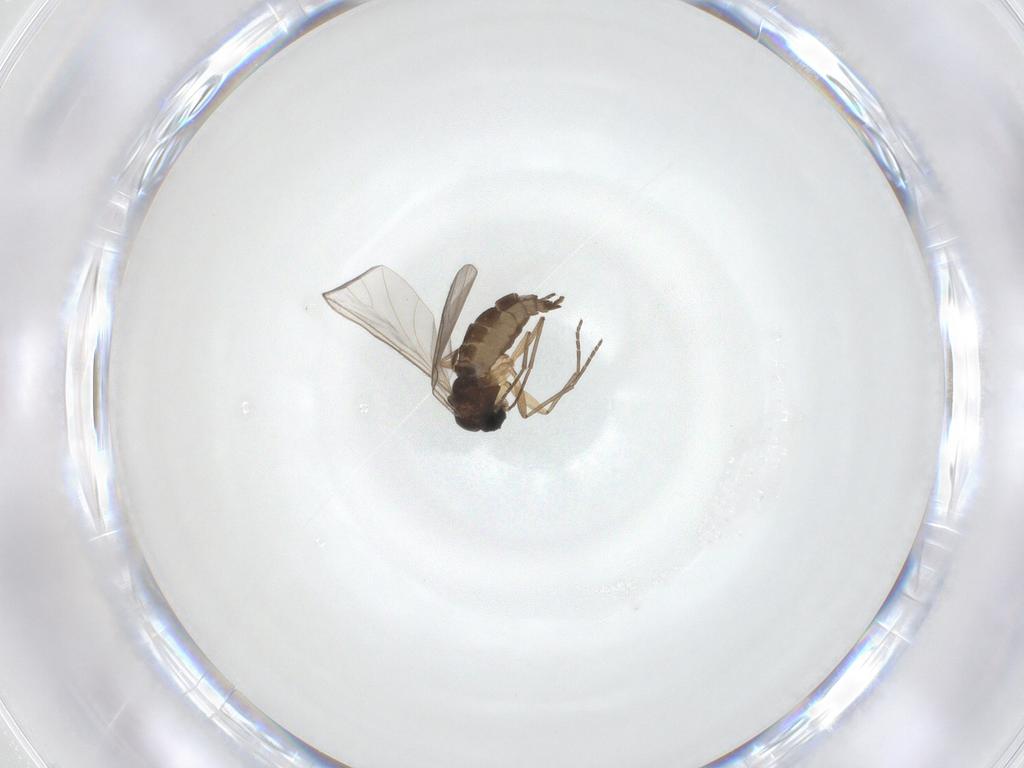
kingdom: Animalia
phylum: Arthropoda
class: Insecta
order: Diptera
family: Sciaridae
